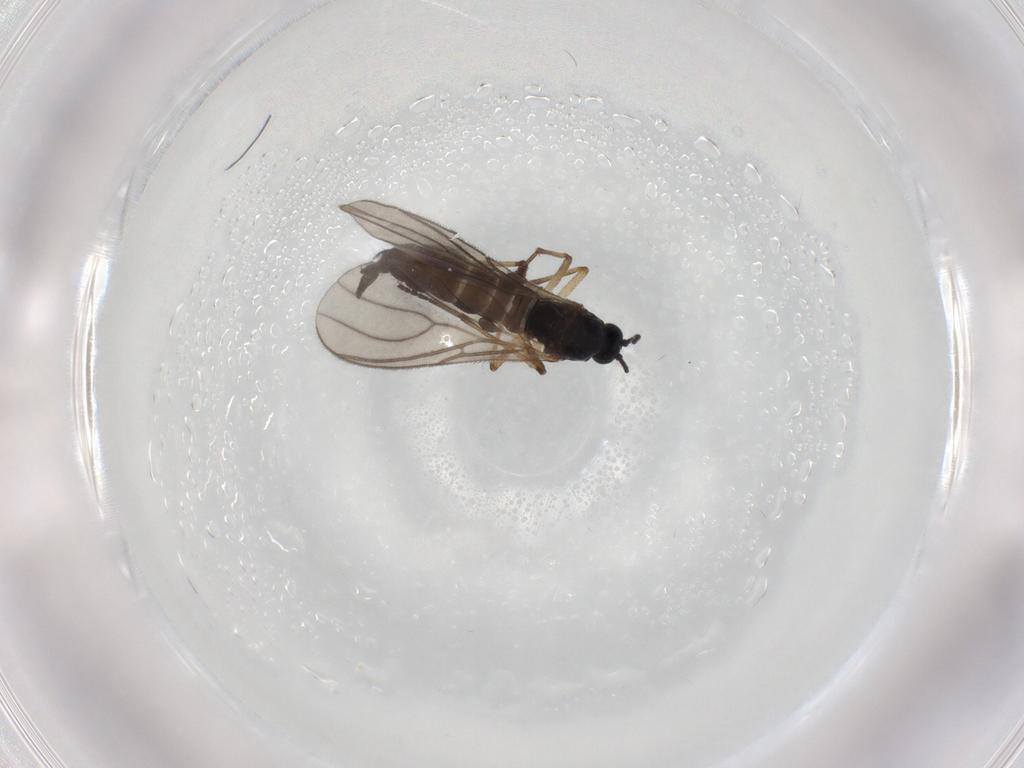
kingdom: Animalia
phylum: Arthropoda
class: Insecta
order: Diptera
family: Sciaridae
